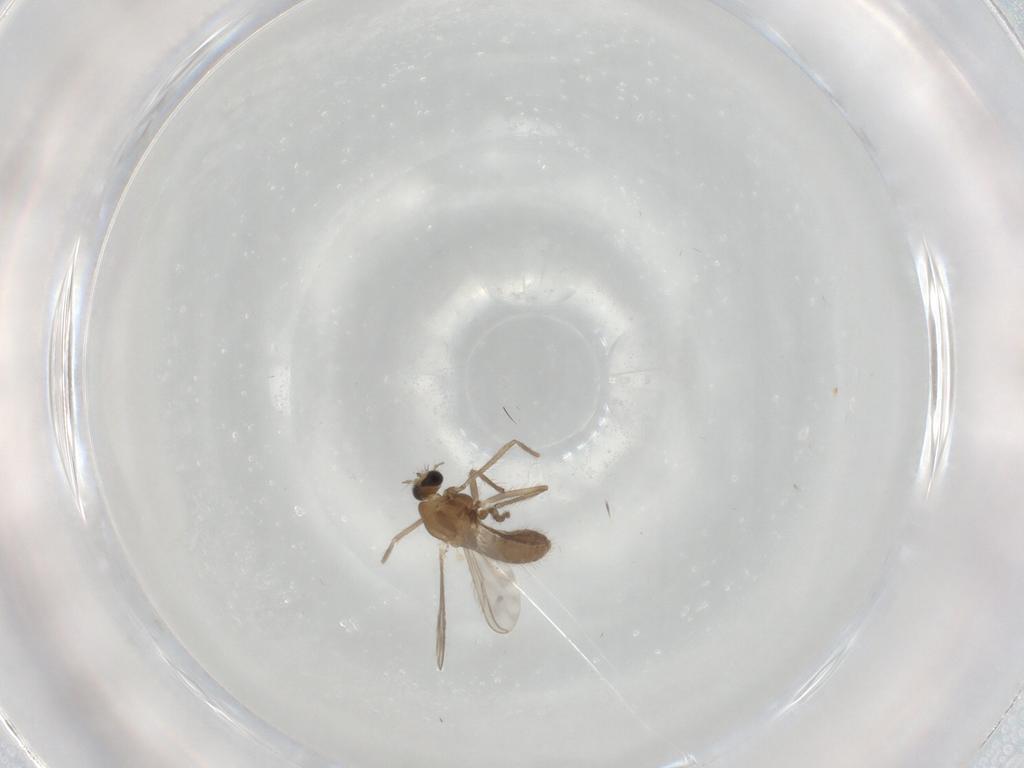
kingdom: Animalia
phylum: Arthropoda
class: Insecta
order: Diptera
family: Chironomidae
